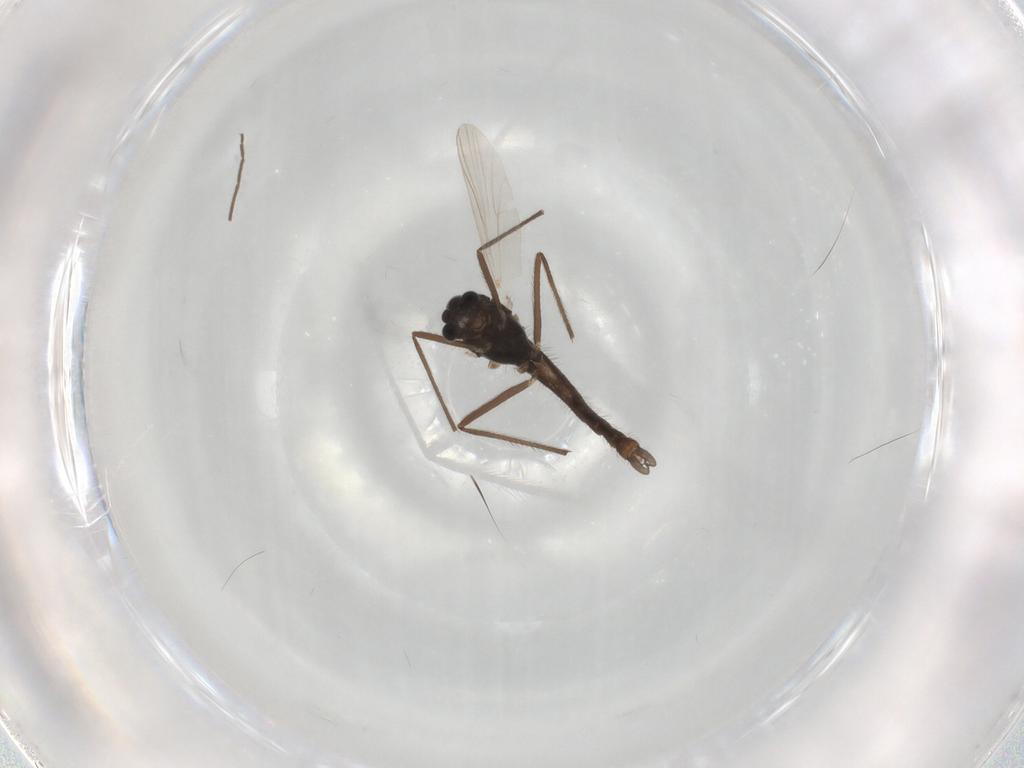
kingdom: Animalia
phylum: Arthropoda
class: Insecta
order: Diptera
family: Chironomidae
